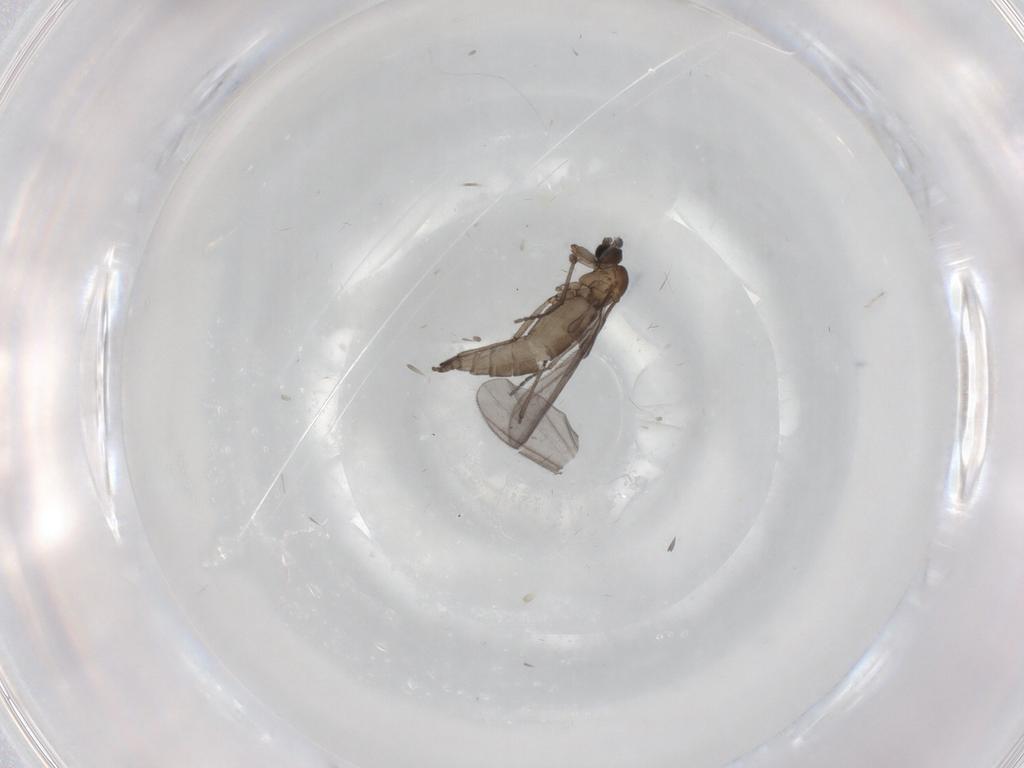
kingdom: Animalia
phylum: Arthropoda
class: Insecta
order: Diptera
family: Sciaridae
